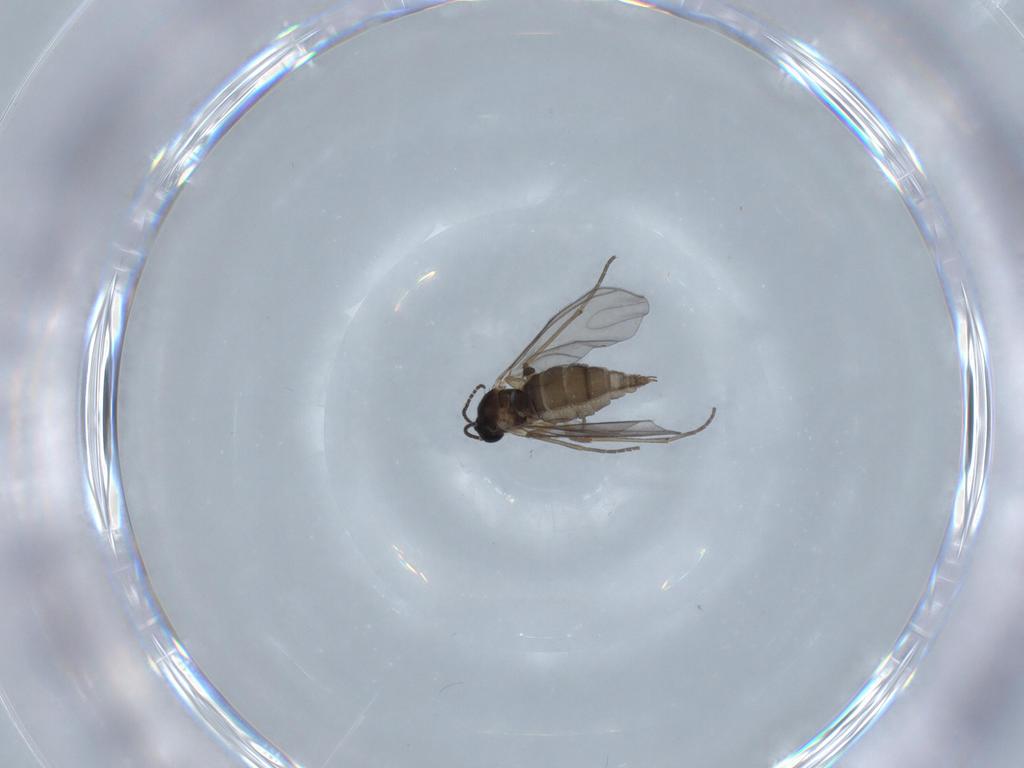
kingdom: Animalia
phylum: Arthropoda
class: Insecta
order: Diptera
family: Sciaridae
